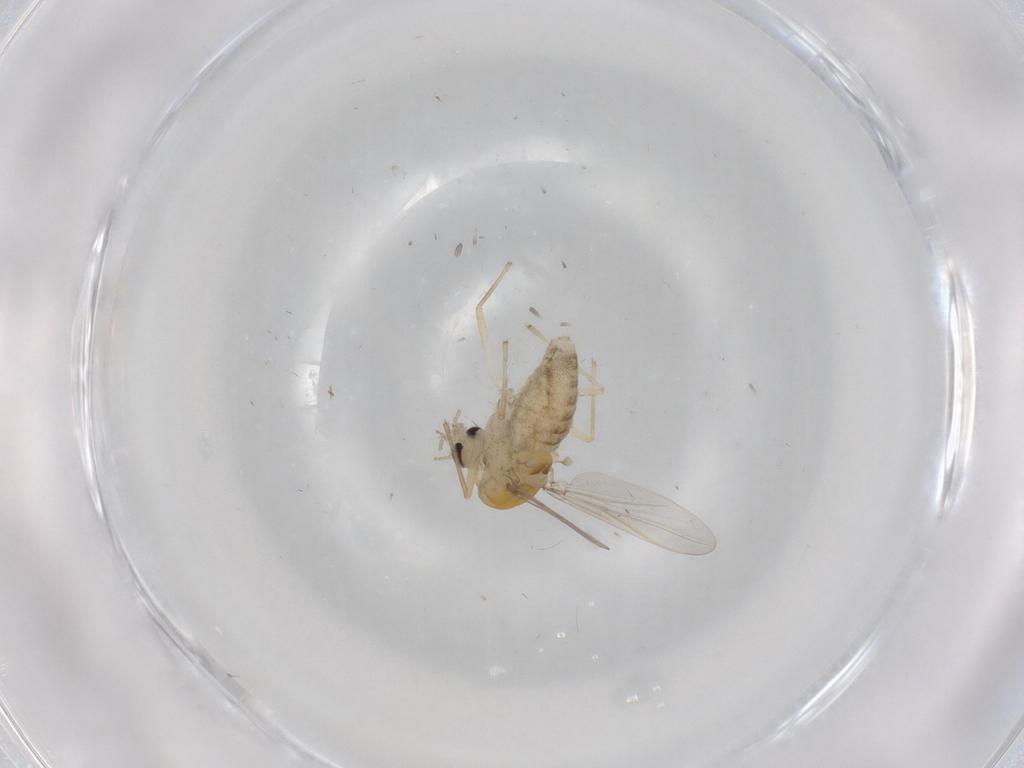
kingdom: Animalia
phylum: Arthropoda
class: Insecta
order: Diptera
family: Chironomidae
